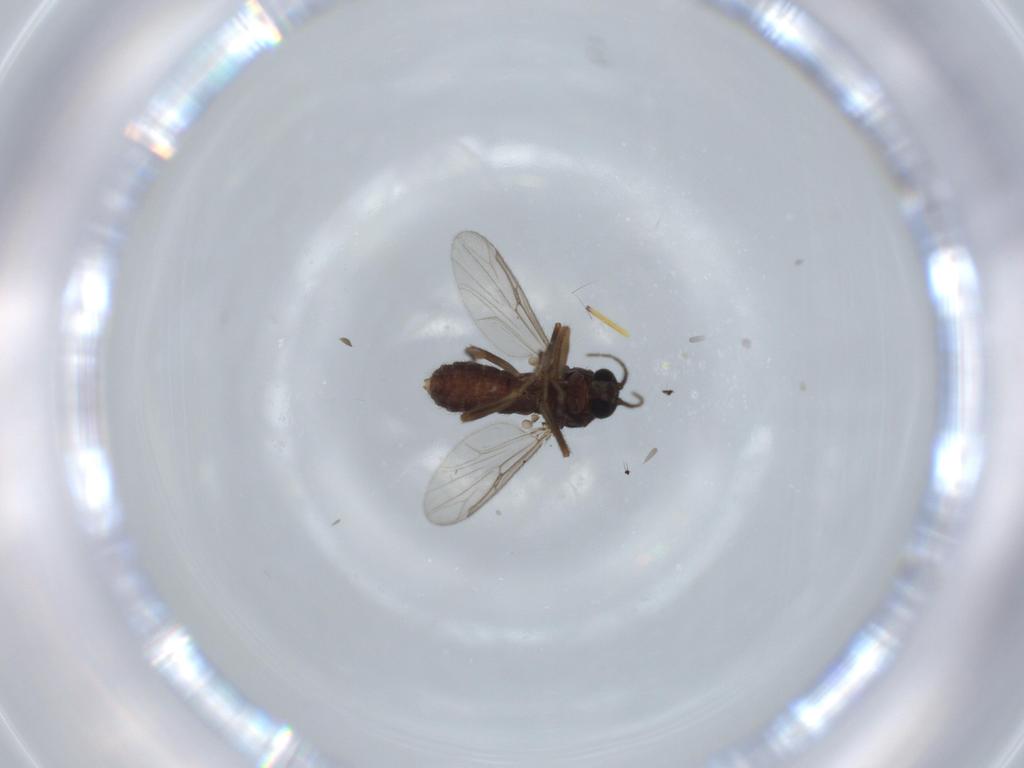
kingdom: Animalia
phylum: Arthropoda
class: Insecta
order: Diptera
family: Ceratopogonidae
